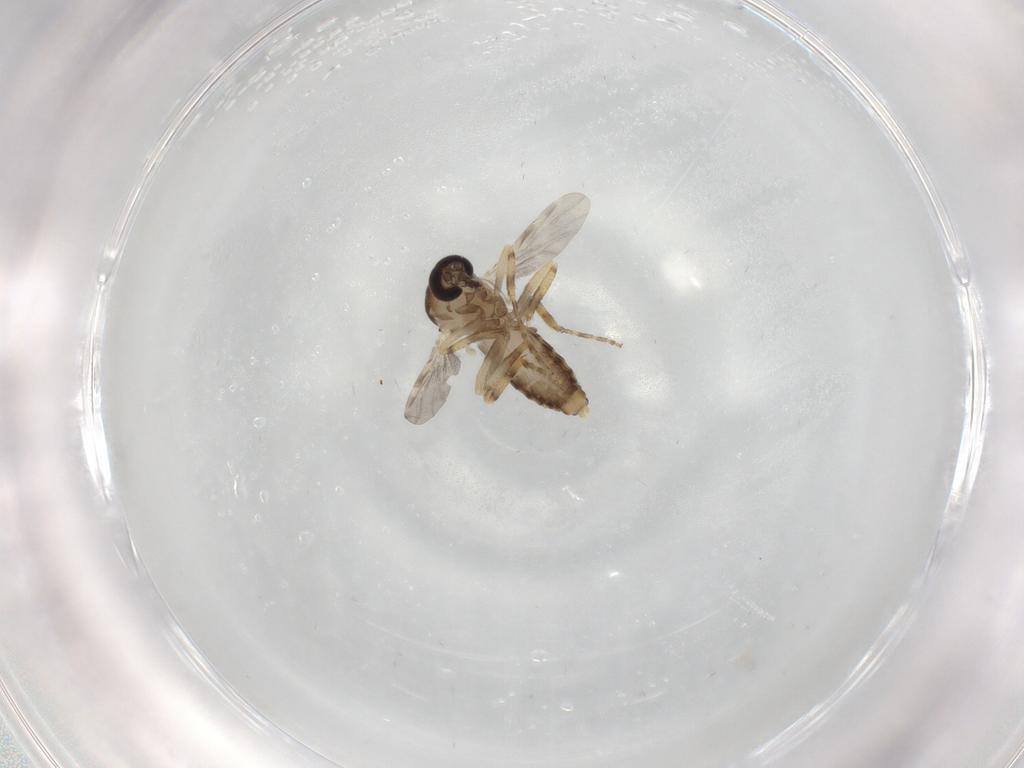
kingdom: Animalia
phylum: Arthropoda
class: Insecta
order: Diptera
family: Ceratopogonidae
